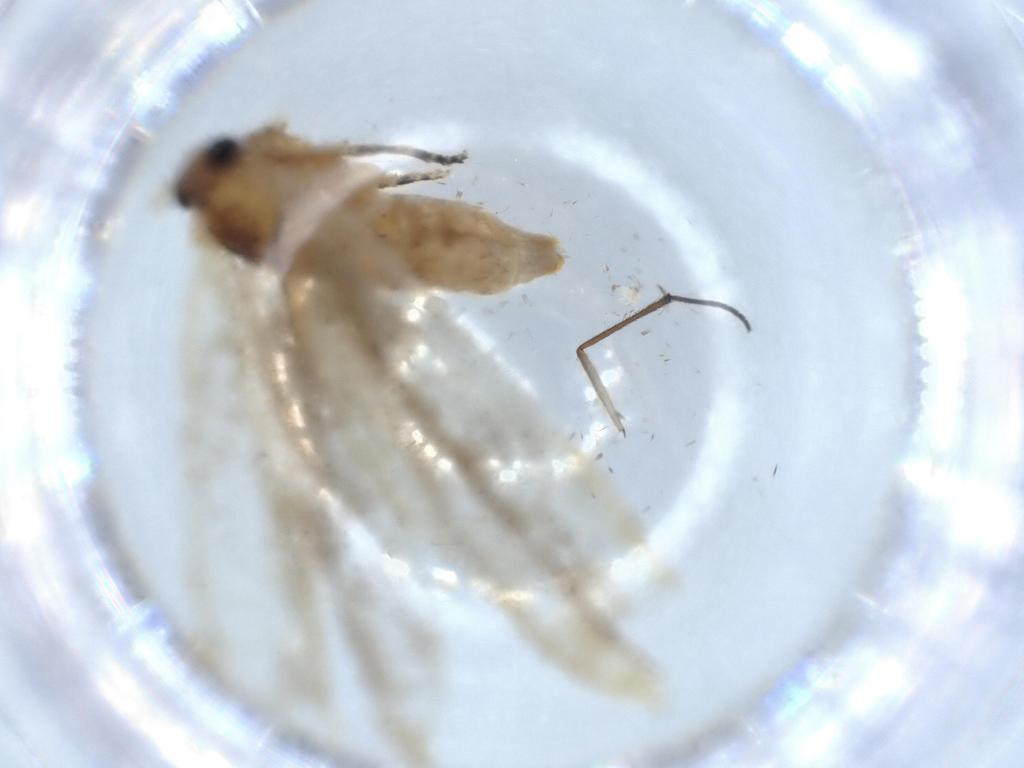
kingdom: Animalia
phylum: Arthropoda
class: Insecta
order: Lepidoptera
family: Tineidae
